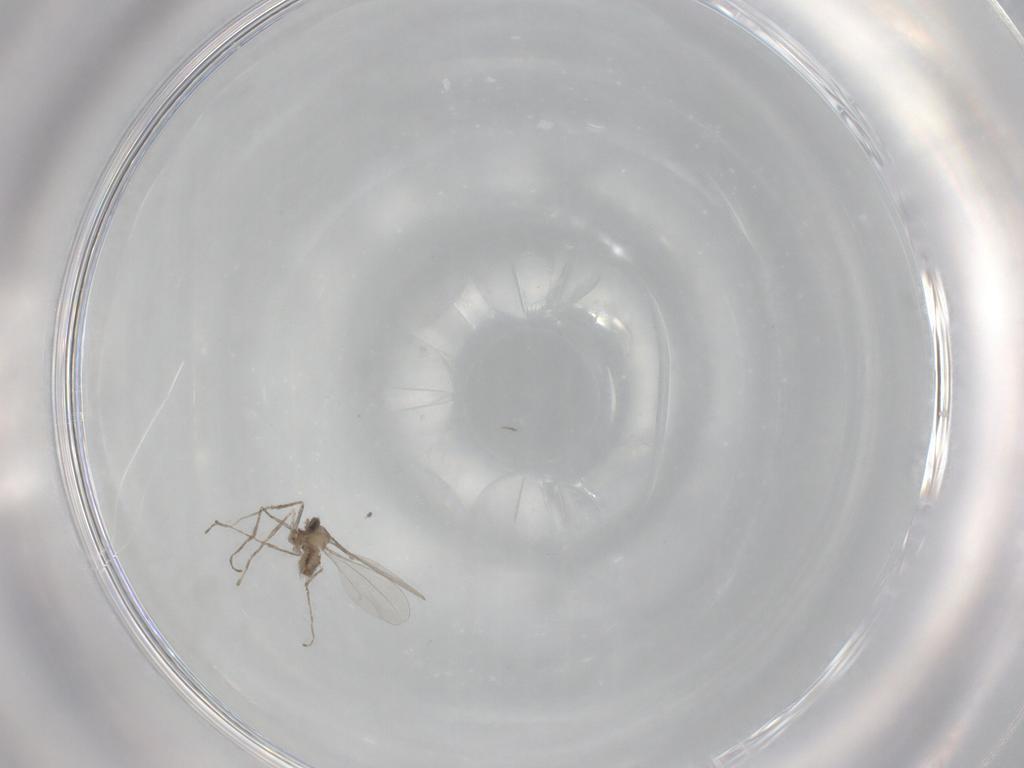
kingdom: Animalia
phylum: Arthropoda
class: Insecta
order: Diptera
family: Cecidomyiidae
